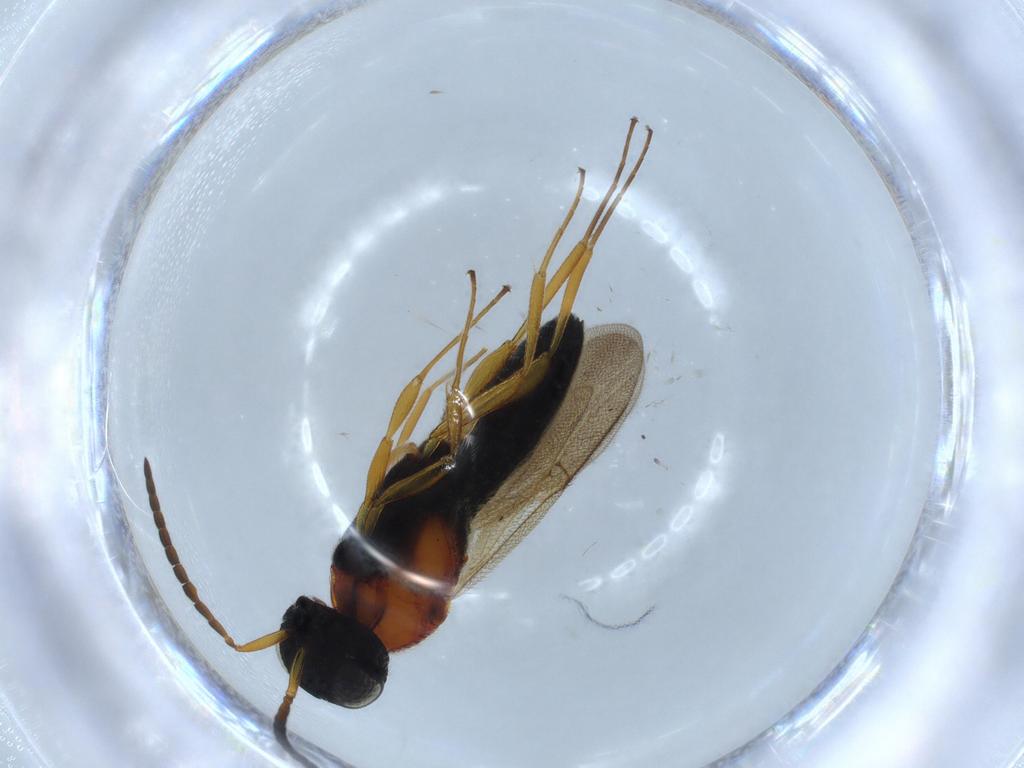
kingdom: Animalia
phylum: Arthropoda
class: Insecta
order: Hymenoptera
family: Scelionidae
